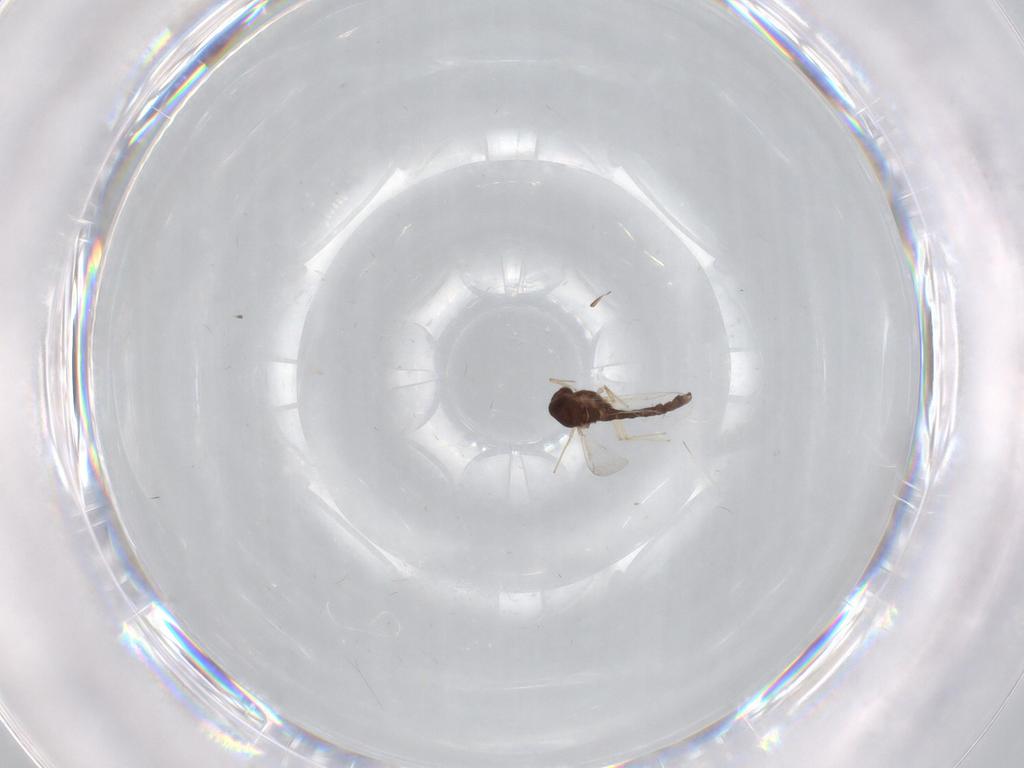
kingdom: Animalia
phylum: Arthropoda
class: Insecta
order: Diptera
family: Chironomidae
